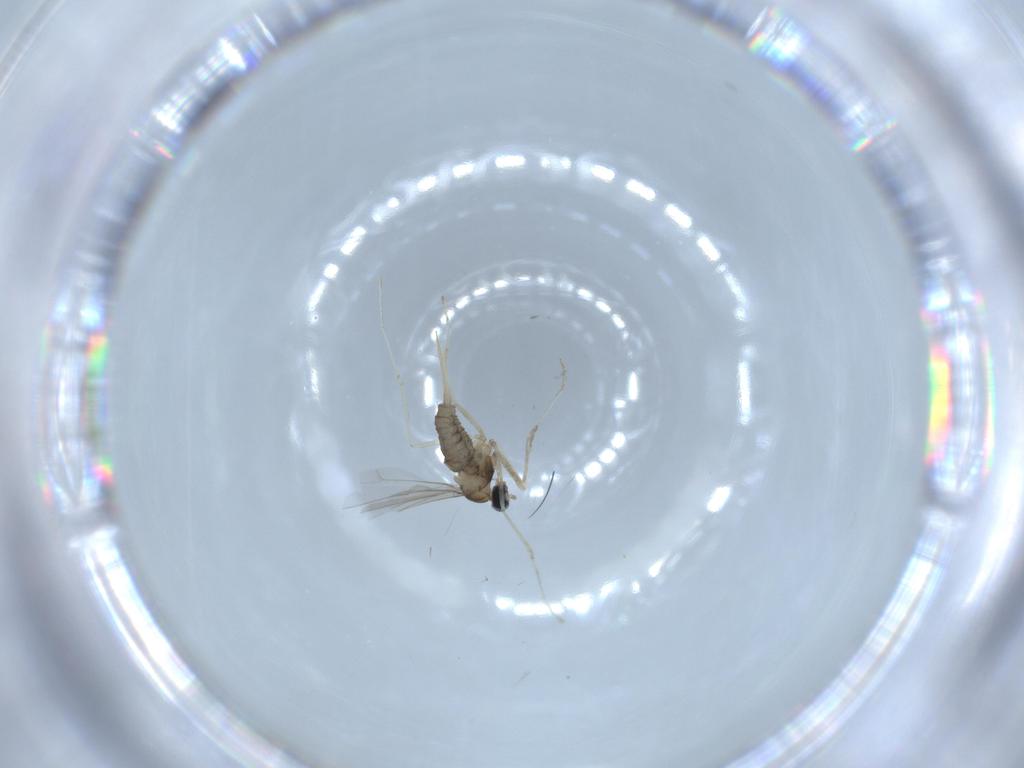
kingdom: Animalia
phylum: Arthropoda
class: Insecta
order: Diptera
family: Cecidomyiidae
